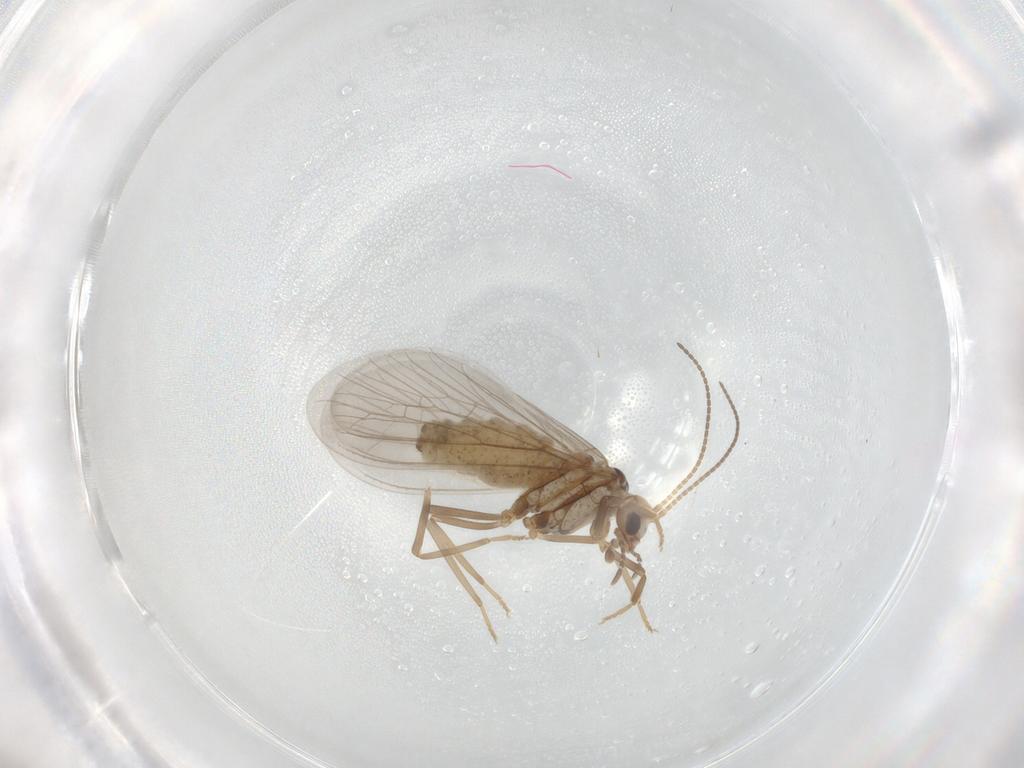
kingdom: Animalia
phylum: Arthropoda
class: Insecta
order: Neuroptera
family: Coniopterygidae
